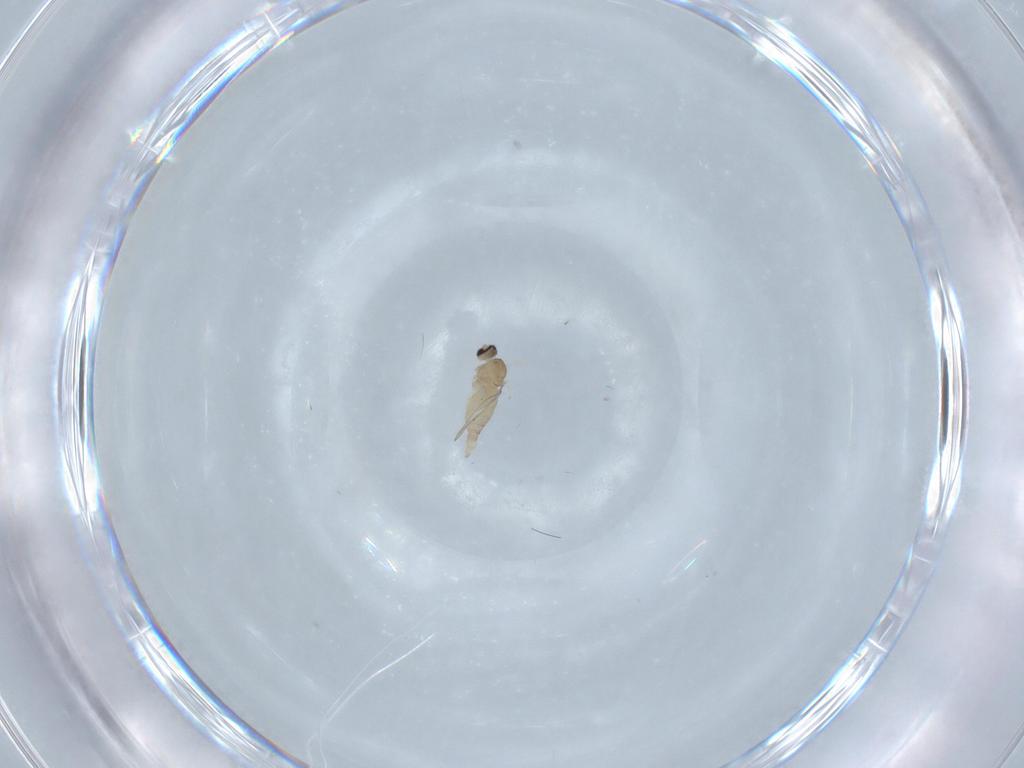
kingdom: Animalia
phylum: Arthropoda
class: Insecta
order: Diptera
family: Cecidomyiidae
